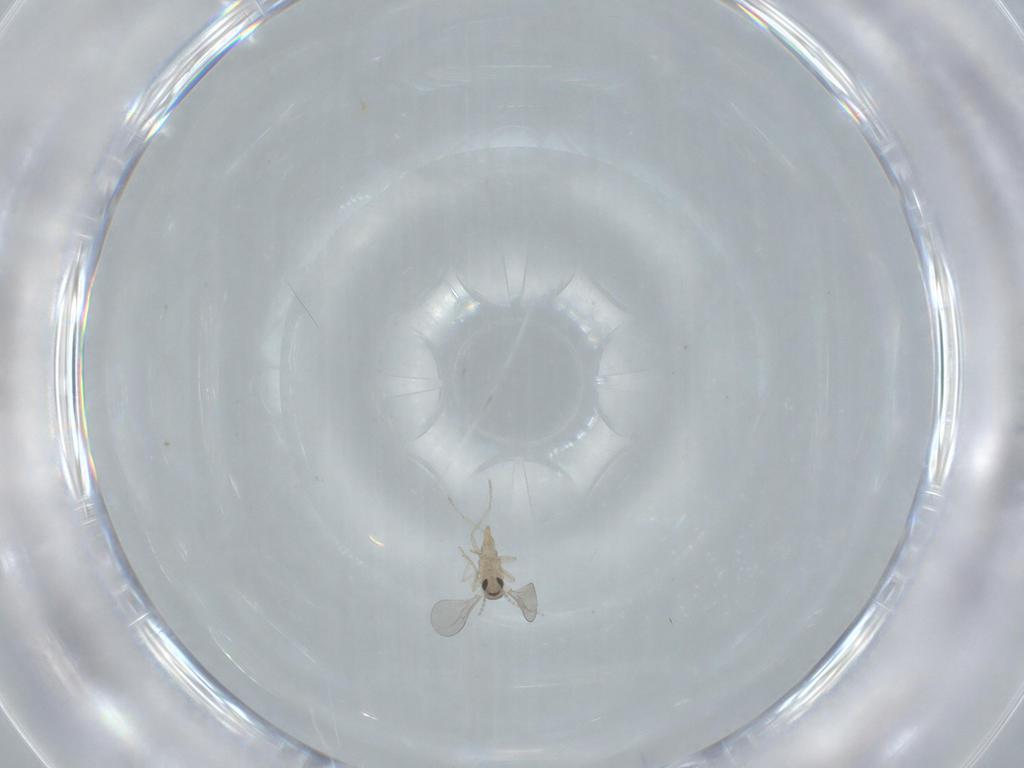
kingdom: Animalia
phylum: Arthropoda
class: Insecta
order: Diptera
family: Cecidomyiidae
